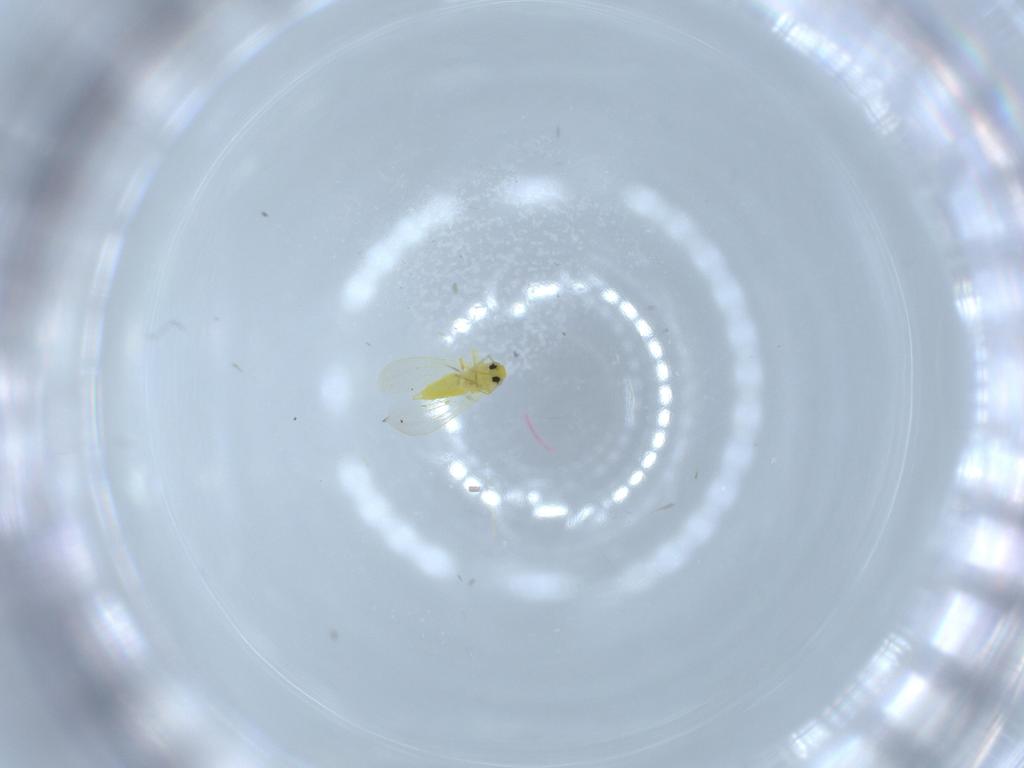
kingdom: Animalia
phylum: Arthropoda
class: Insecta
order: Hemiptera
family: Aleyrodidae
